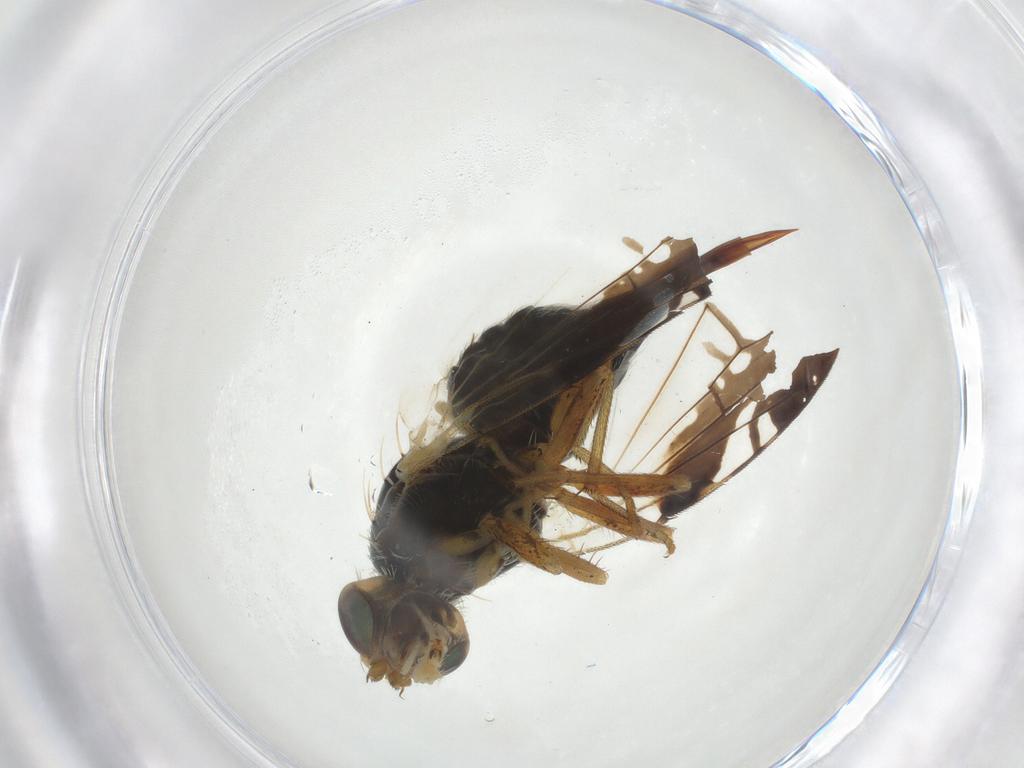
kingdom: Animalia
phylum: Arthropoda
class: Insecta
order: Diptera
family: Tephritidae
